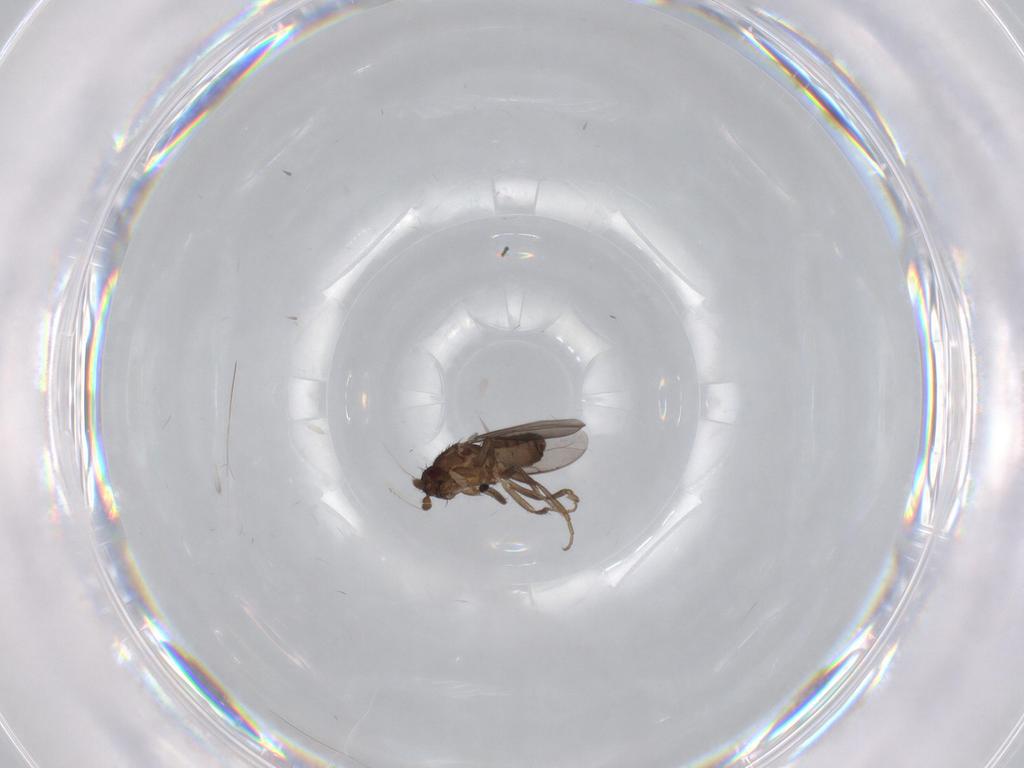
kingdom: Animalia
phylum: Arthropoda
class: Insecta
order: Diptera
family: Sphaeroceridae
